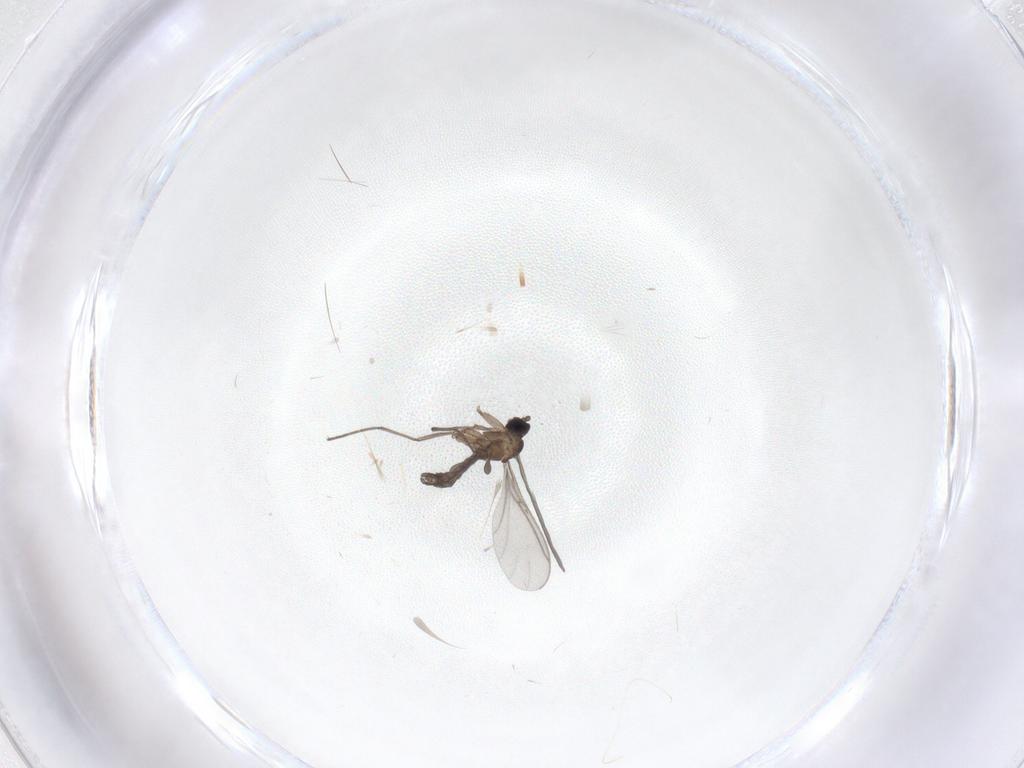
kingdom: Animalia
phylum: Arthropoda
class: Insecta
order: Diptera
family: Sciaridae
